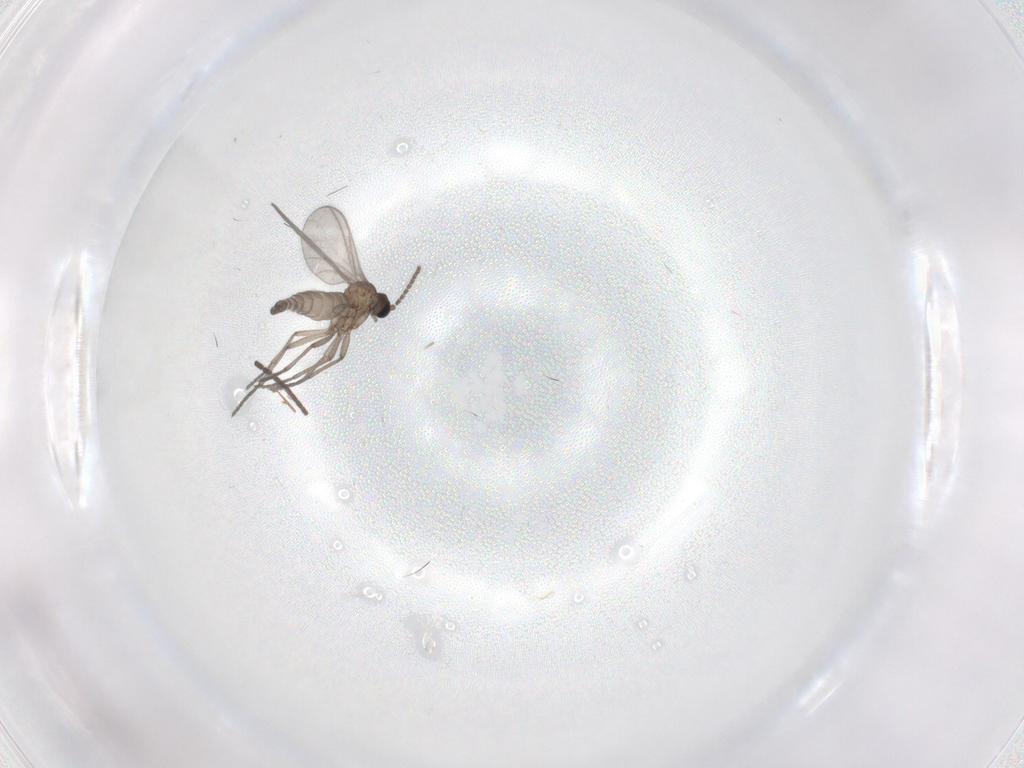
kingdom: Animalia
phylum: Arthropoda
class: Insecta
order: Diptera
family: Sciaridae
